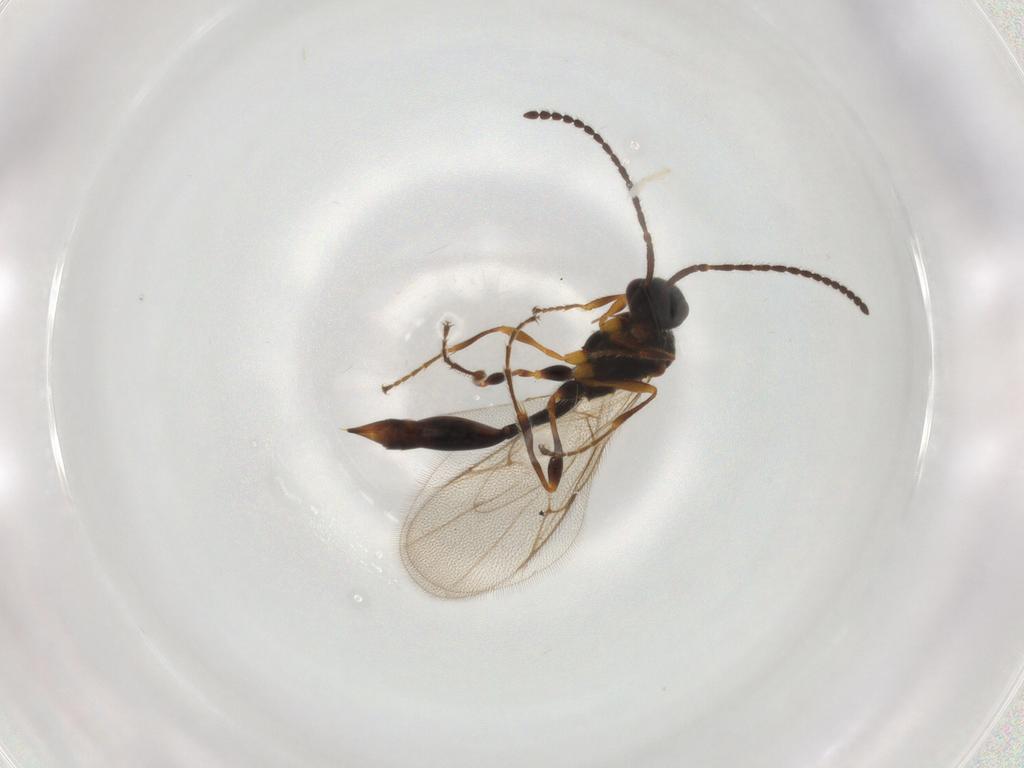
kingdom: Animalia
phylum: Arthropoda
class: Insecta
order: Hymenoptera
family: Diapriidae
